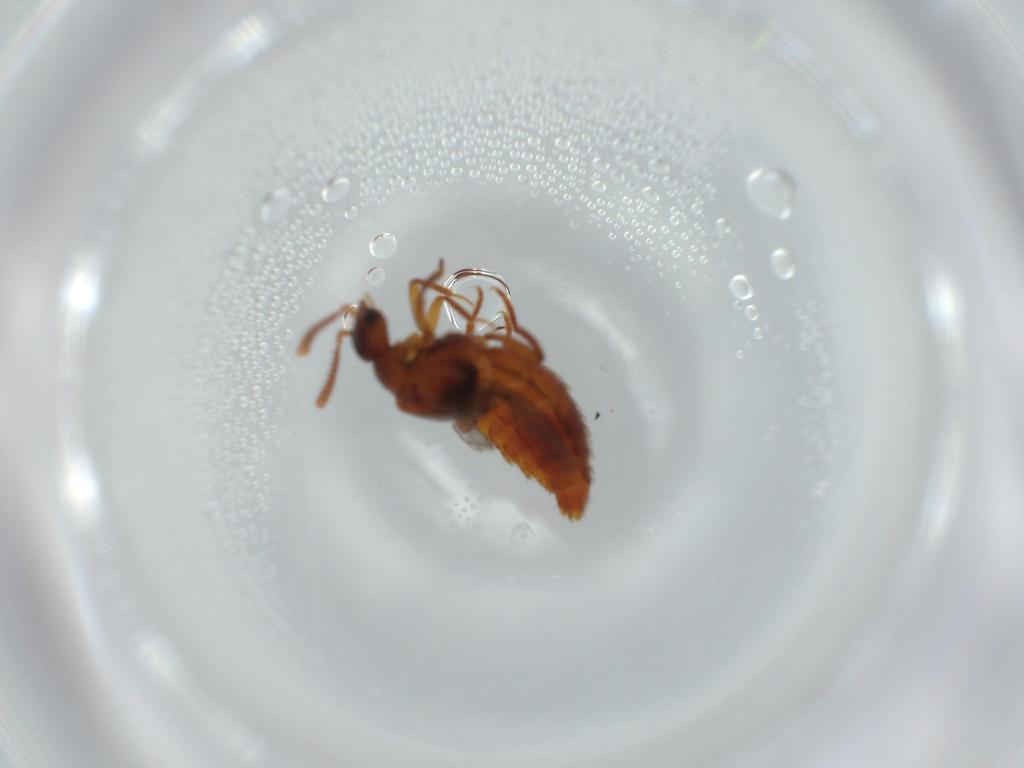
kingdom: Animalia
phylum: Arthropoda
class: Insecta
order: Coleoptera
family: Staphylinidae
